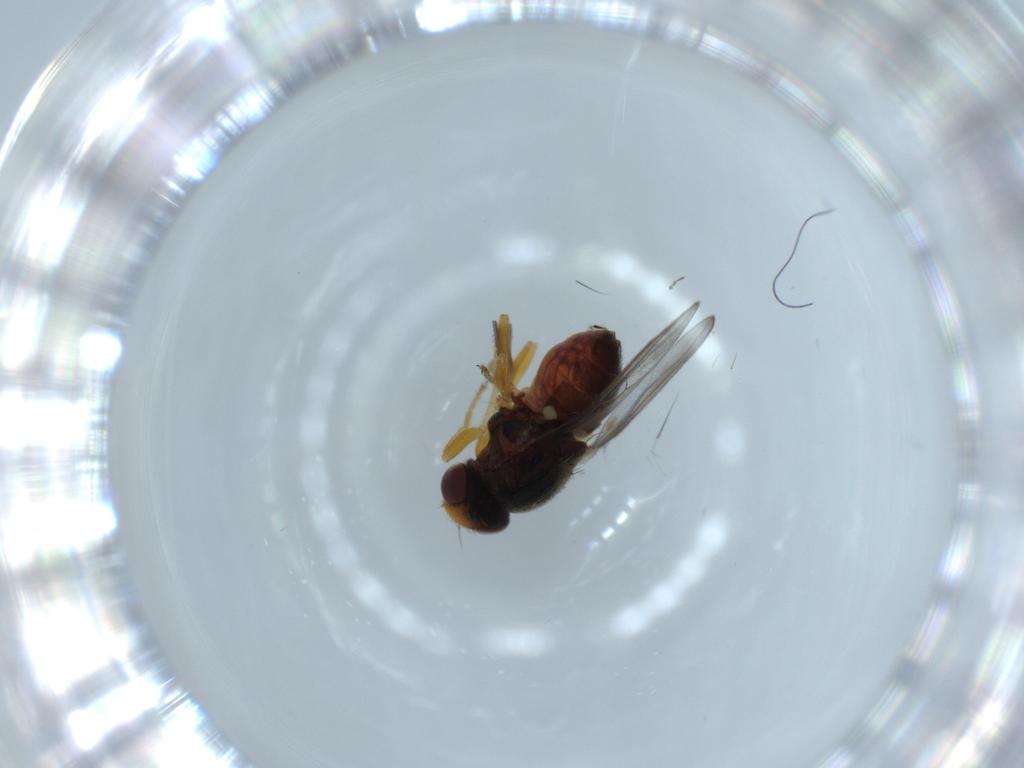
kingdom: Animalia
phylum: Arthropoda
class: Insecta
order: Diptera
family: Chloropidae
